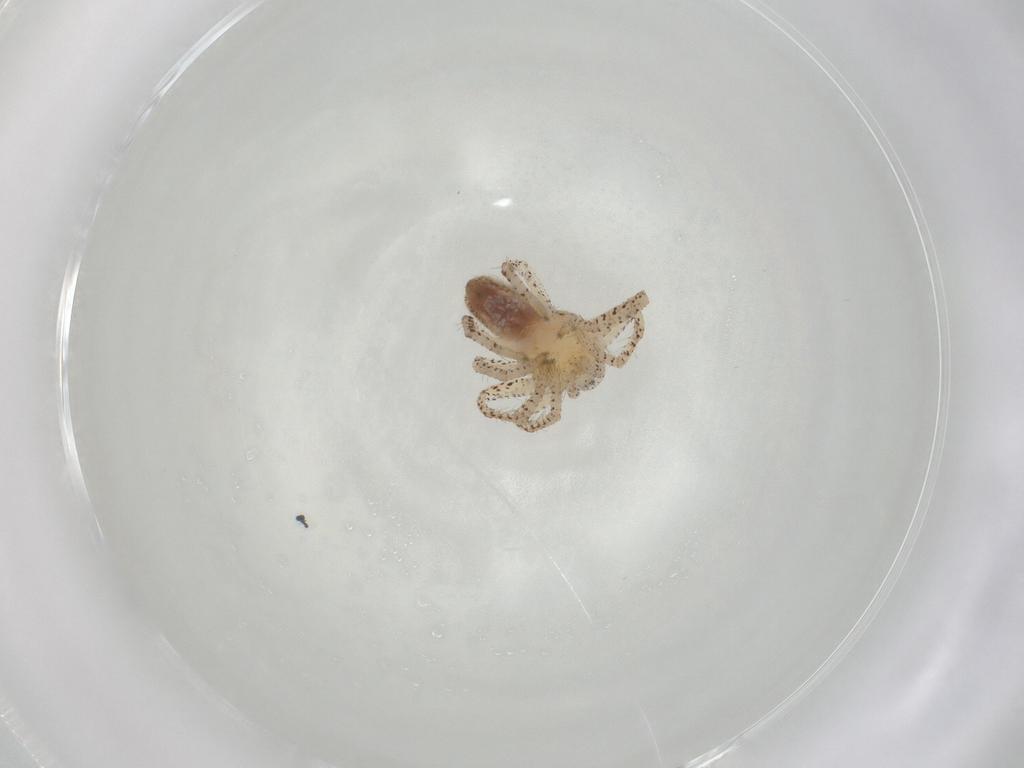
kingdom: Animalia
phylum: Arthropoda
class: Arachnida
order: Araneae
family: Philodromidae
